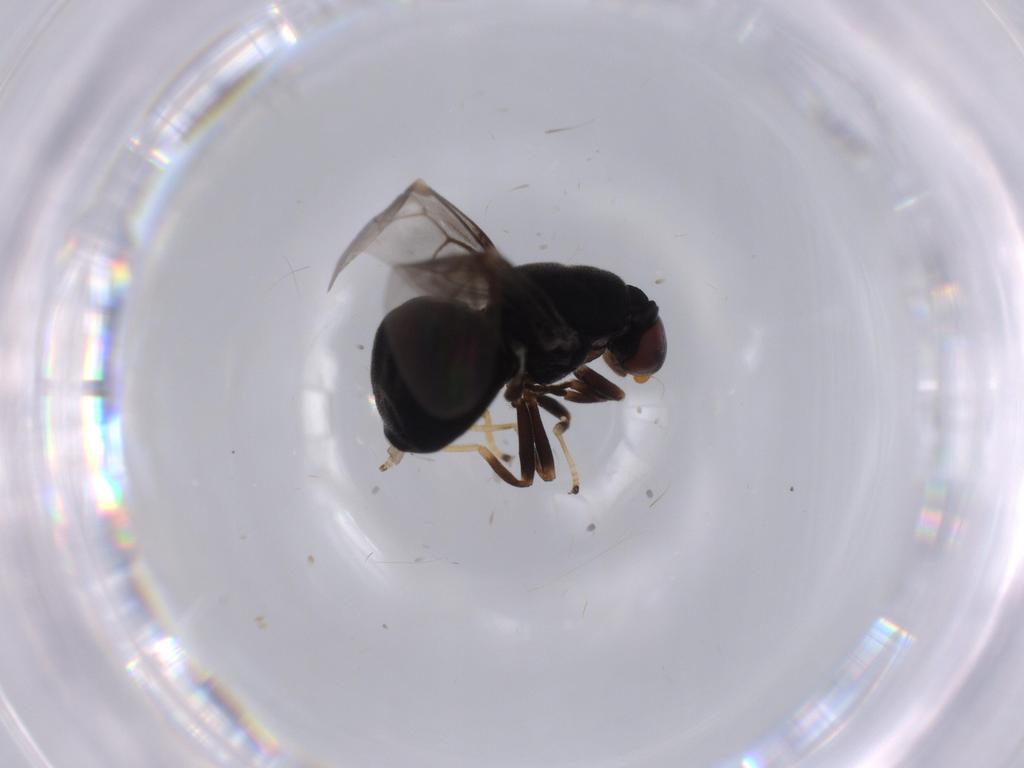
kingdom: Animalia
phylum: Arthropoda
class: Insecta
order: Diptera
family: Stratiomyidae
